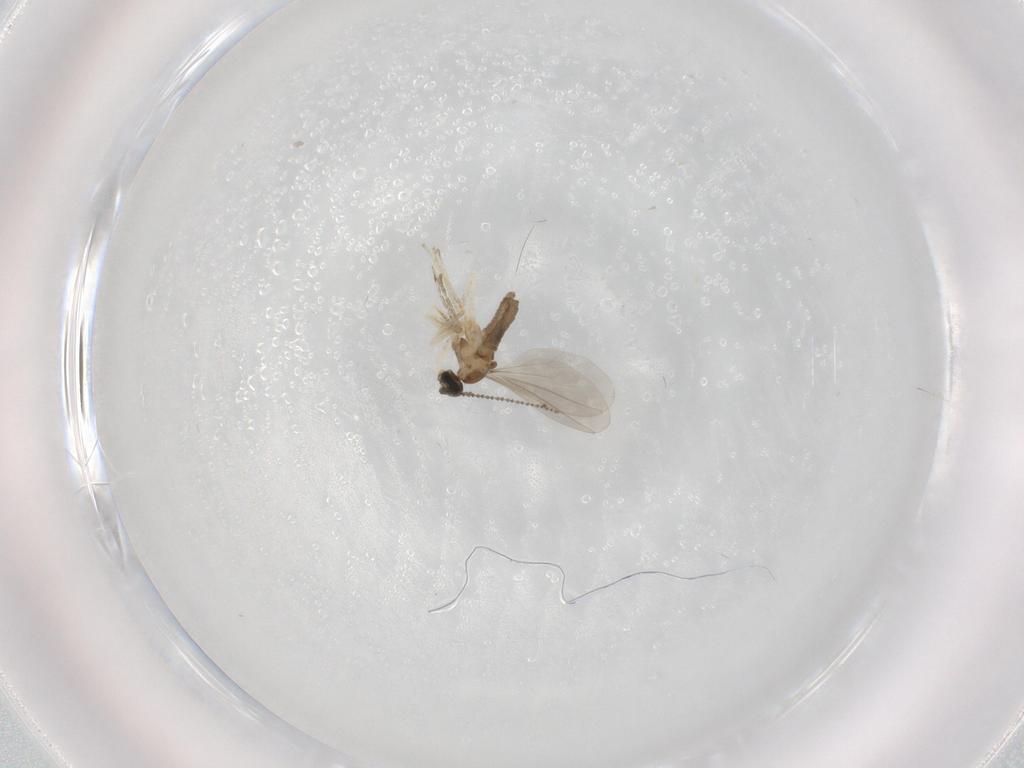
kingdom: Animalia
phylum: Arthropoda
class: Insecta
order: Diptera
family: Cecidomyiidae
